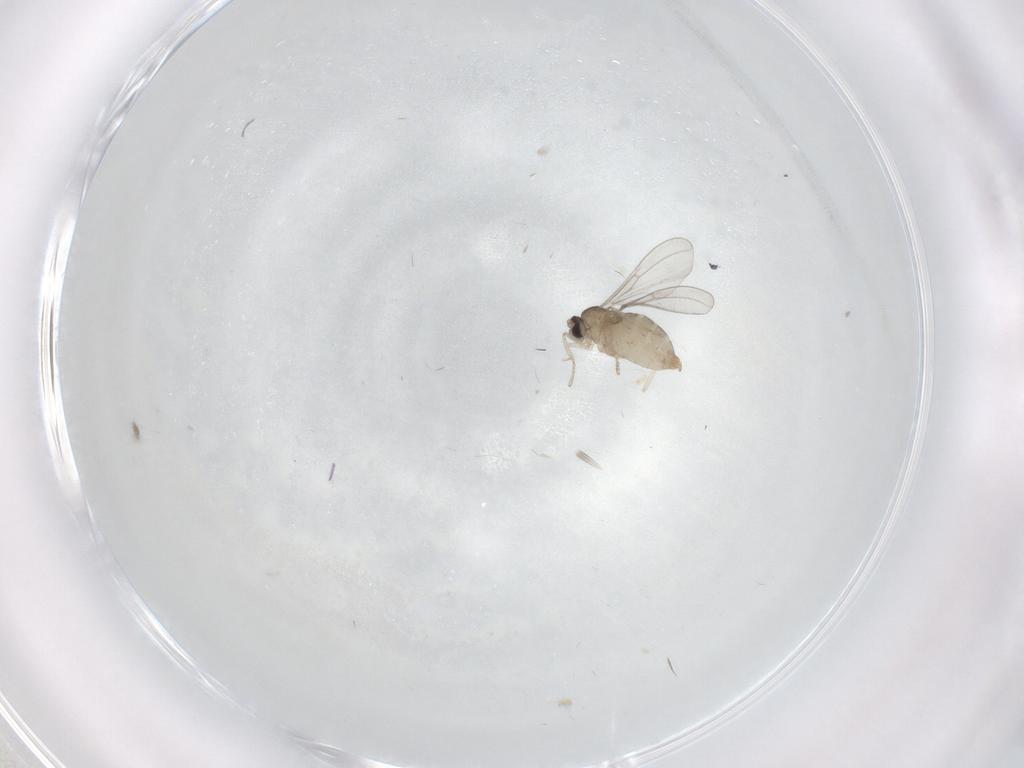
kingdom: Animalia
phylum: Arthropoda
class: Insecta
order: Diptera
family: Cecidomyiidae
